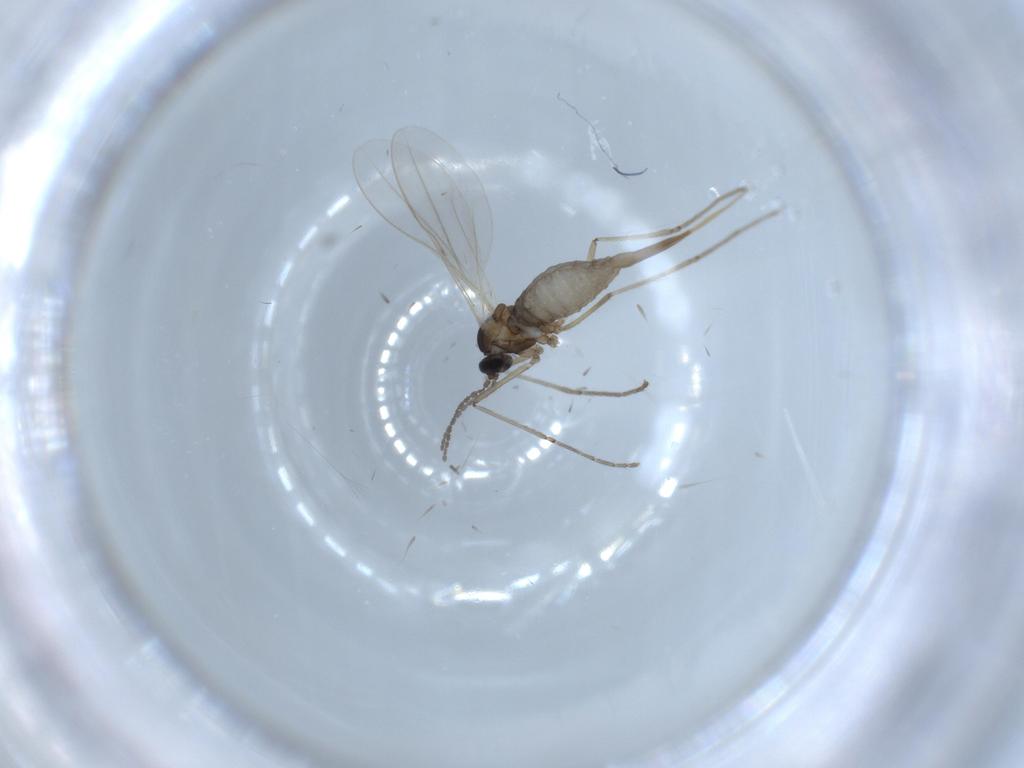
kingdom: Animalia
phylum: Arthropoda
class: Insecta
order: Diptera
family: Cecidomyiidae
